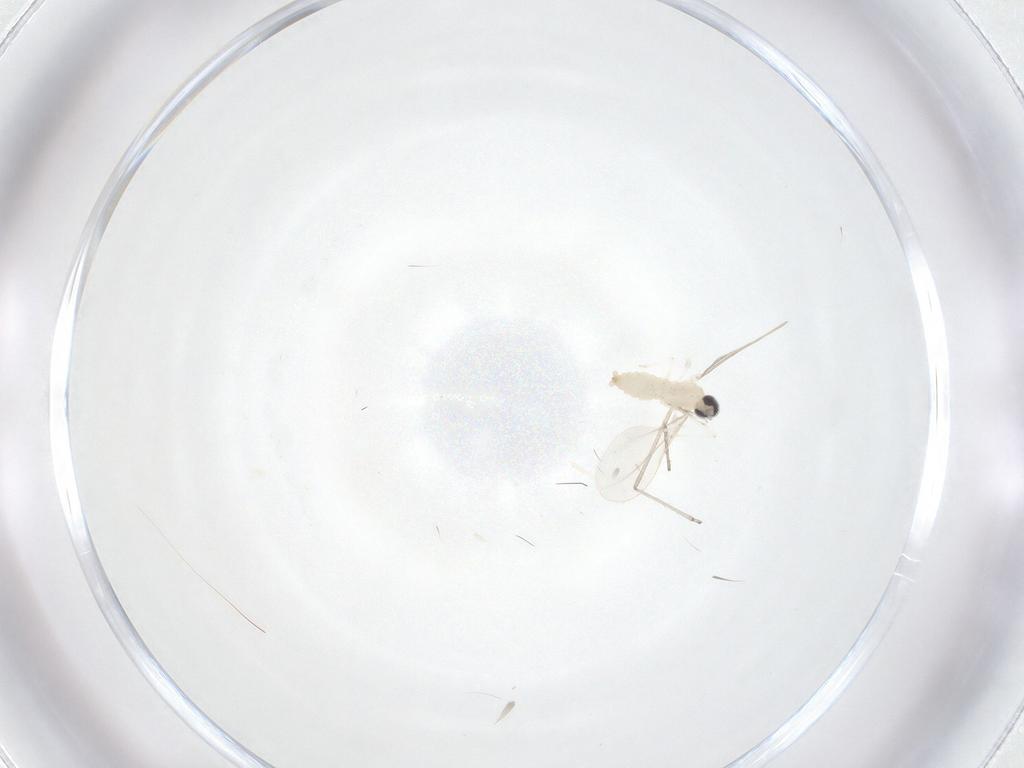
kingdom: Animalia
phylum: Arthropoda
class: Insecta
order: Diptera
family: Cecidomyiidae
